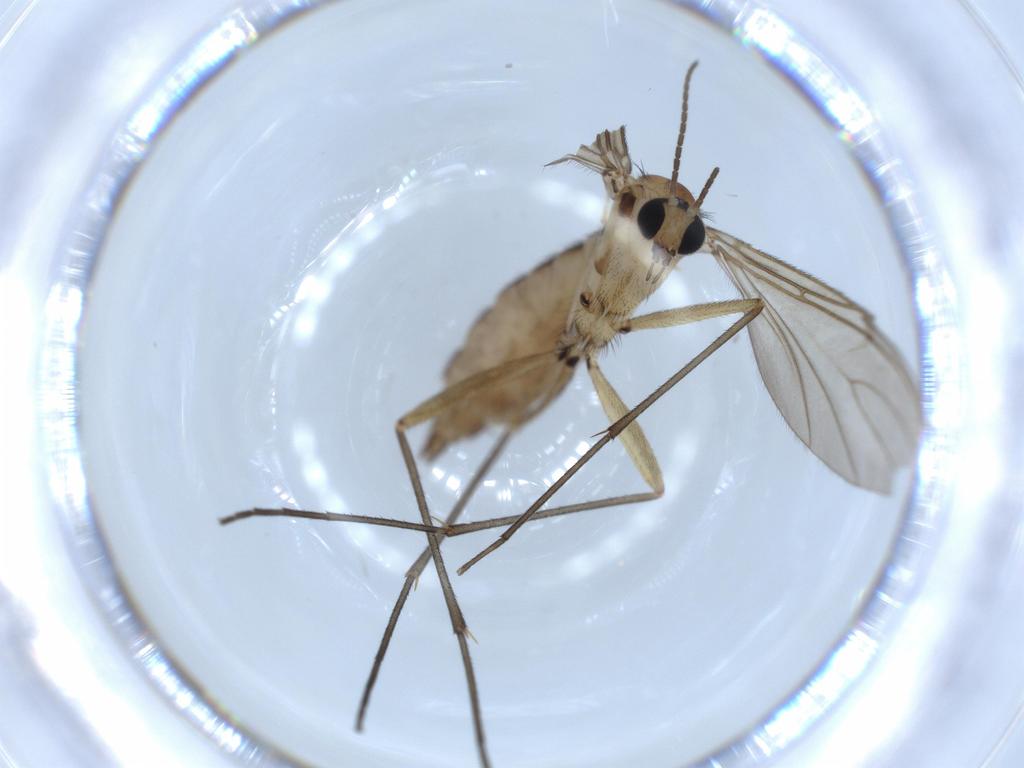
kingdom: Animalia
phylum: Arthropoda
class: Insecta
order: Diptera
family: Sciaridae
